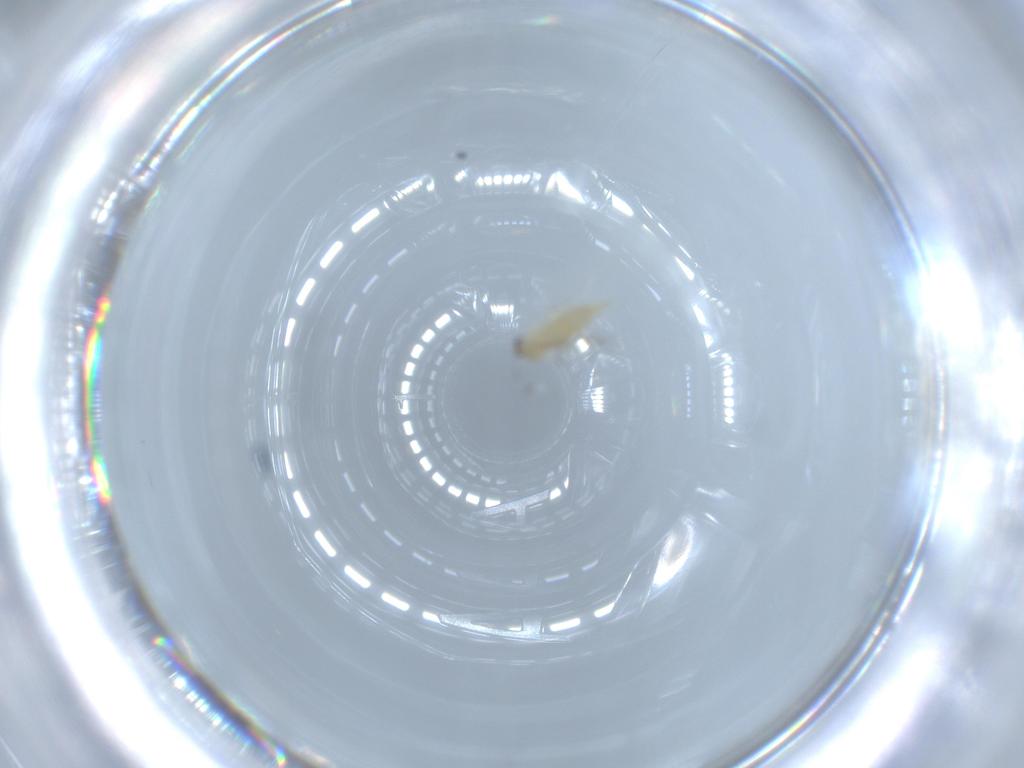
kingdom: Animalia
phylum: Arthropoda
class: Insecta
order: Diptera
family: Cecidomyiidae
